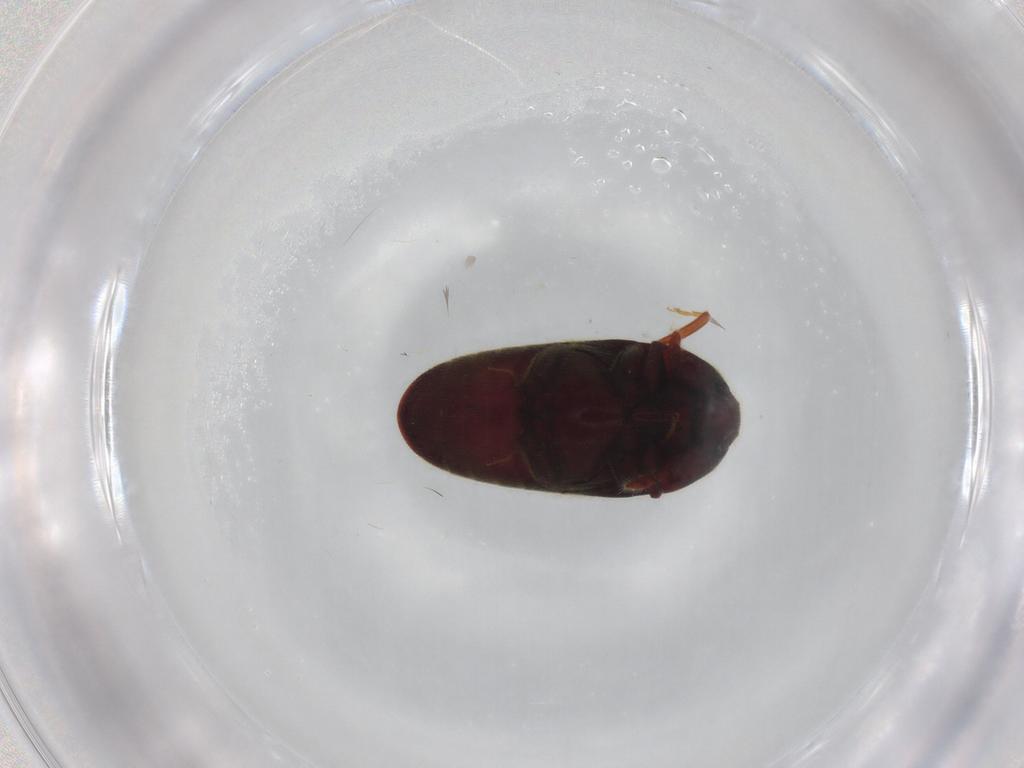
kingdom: Animalia
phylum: Arthropoda
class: Insecta
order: Coleoptera
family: Throscidae
